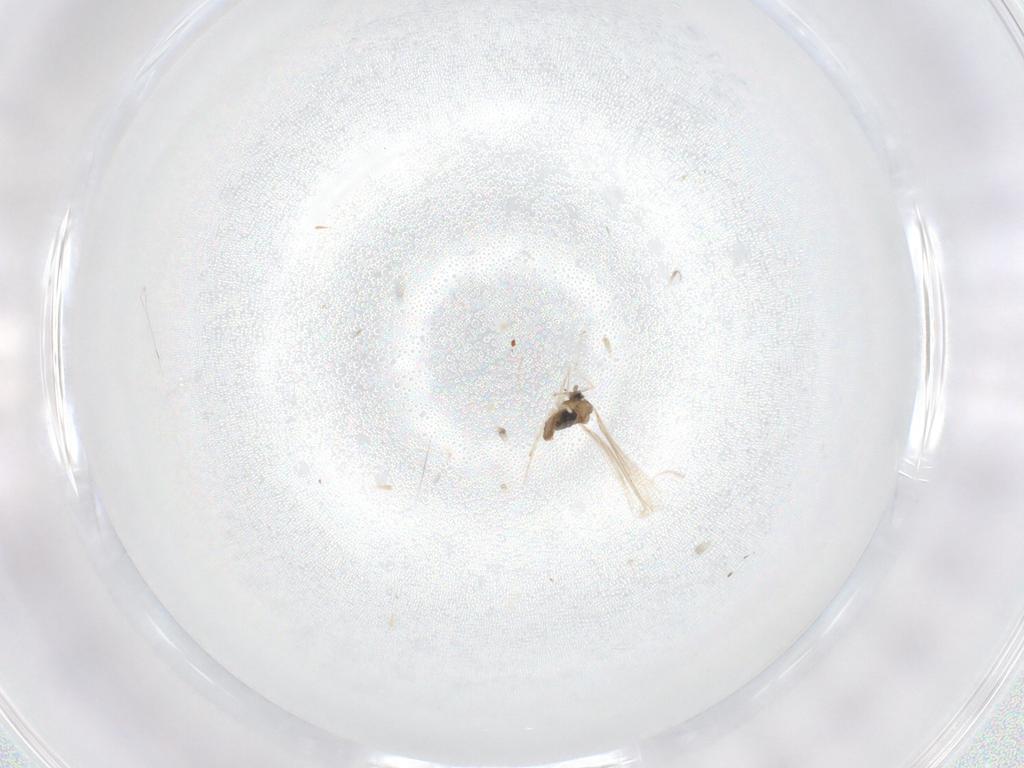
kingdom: Animalia
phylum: Arthropoda
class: Insecta
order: Diptera
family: Cecidomyiidae
